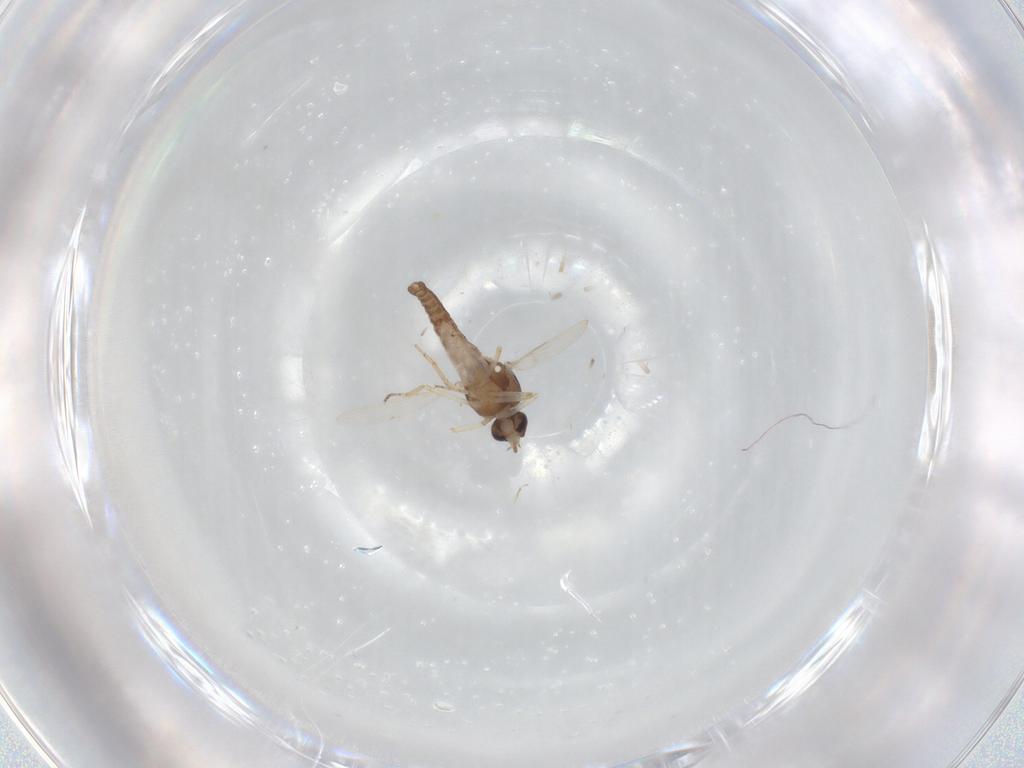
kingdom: Animalia
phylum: Arthropoda
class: Insecta
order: Diptera
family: Ceratopogonidae
